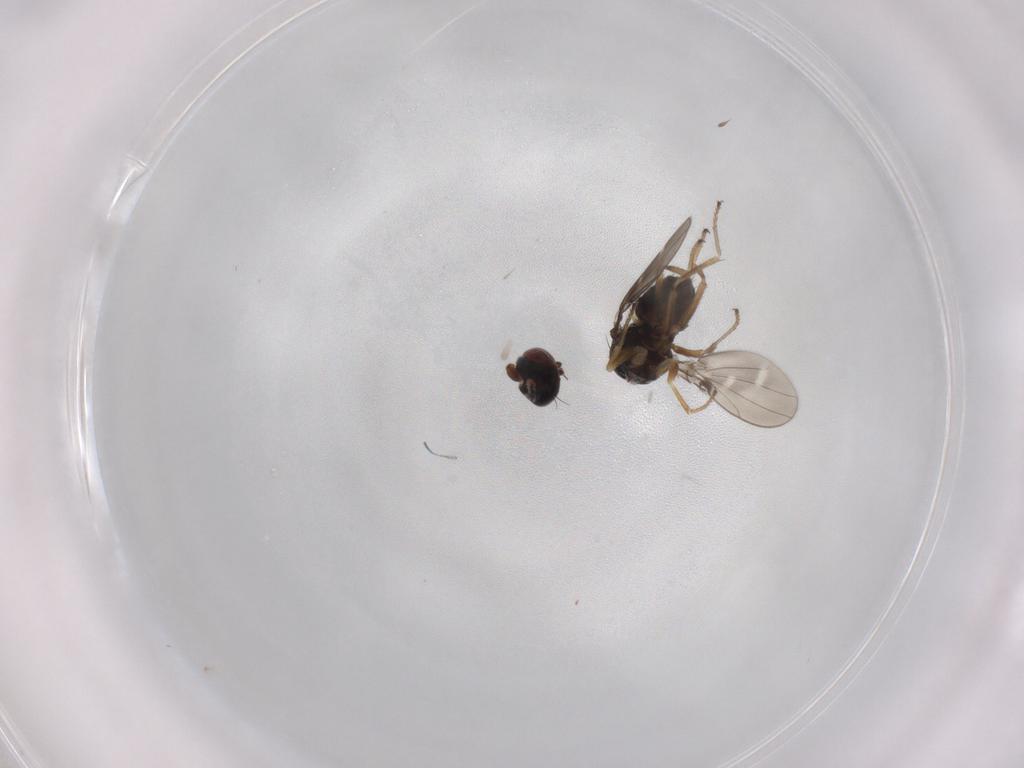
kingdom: Animalia
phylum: Arthropoda
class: Insecta
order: Diptera
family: Ephydridae
